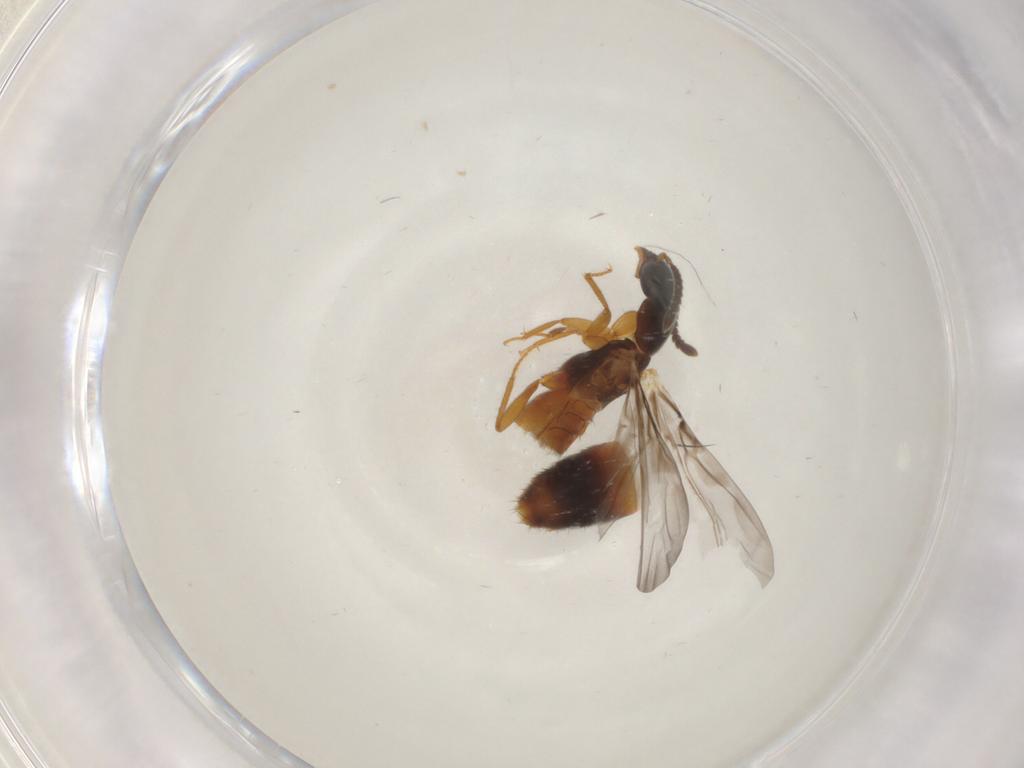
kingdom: Animalia
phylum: Arthropoda
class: Insecta
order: Coleoptera
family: Staphylinidae
